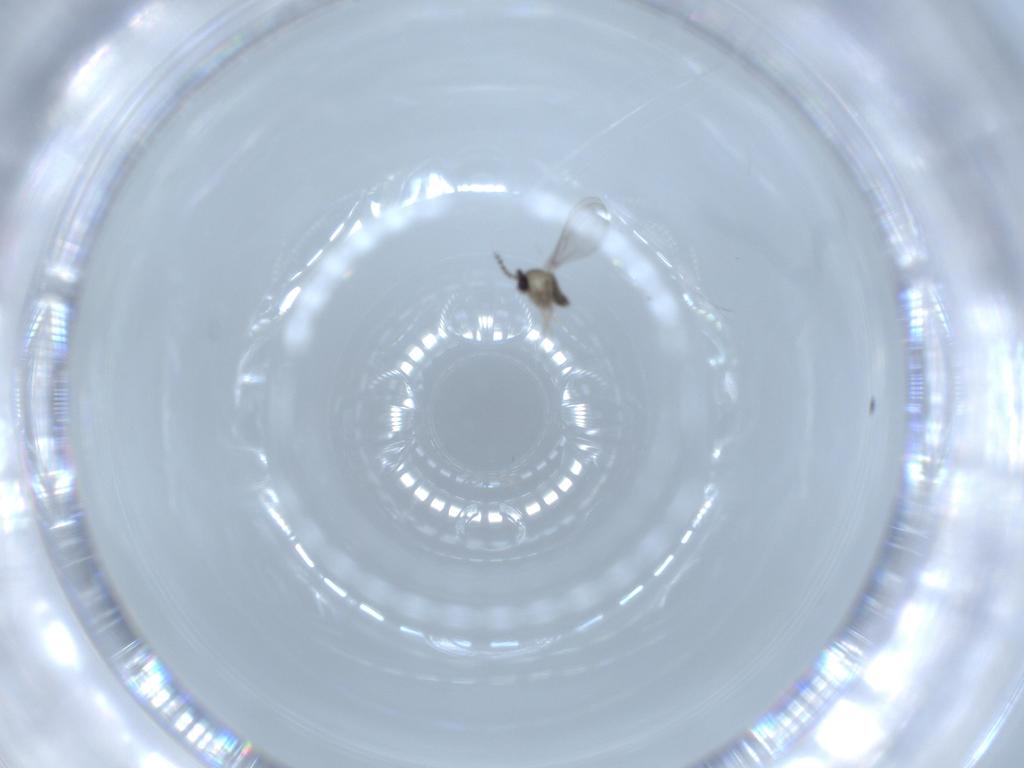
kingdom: Animalia
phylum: Arthropoda
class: Insecta
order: Diptera
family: Cecidomyiidae
